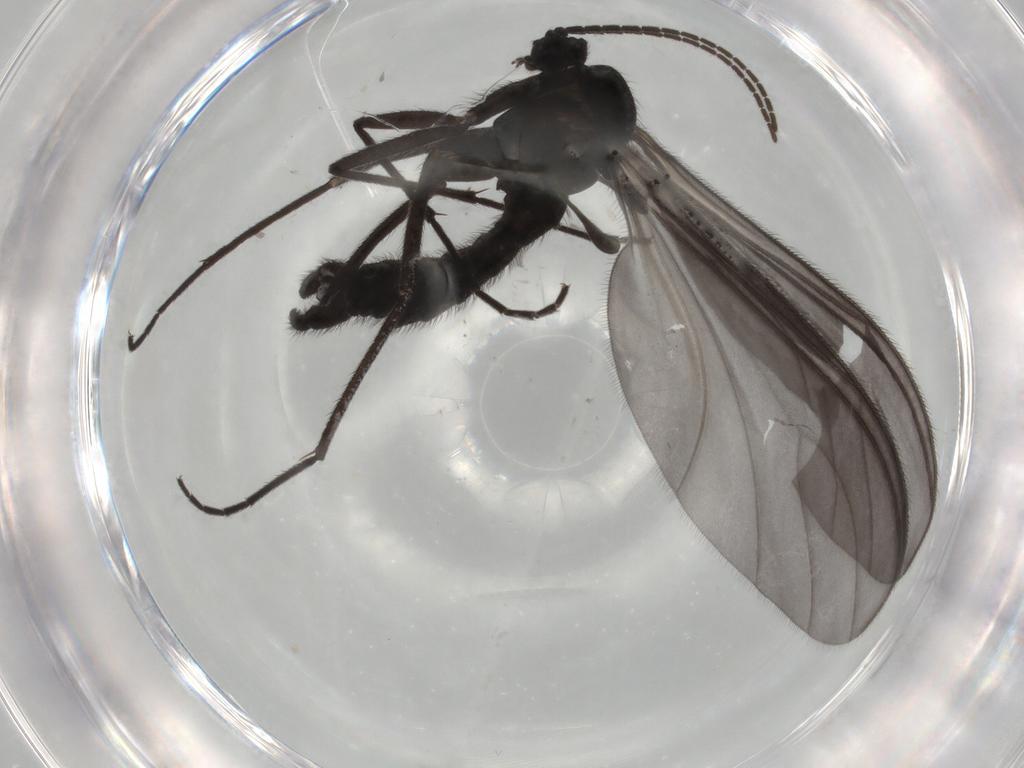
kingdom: Animalia
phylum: Arthropoda
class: Insecta
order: Diptera
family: Sciaridae
